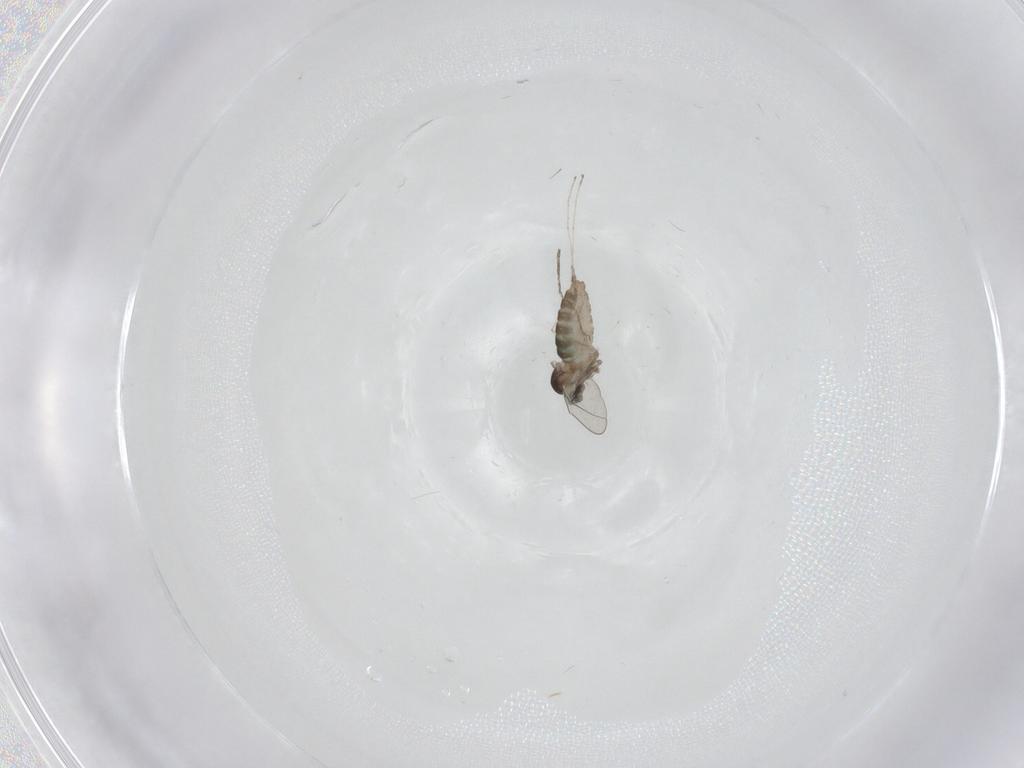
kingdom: Animalia
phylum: Arthropoda
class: Insecta
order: Diptera
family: Cecidomyiidae
